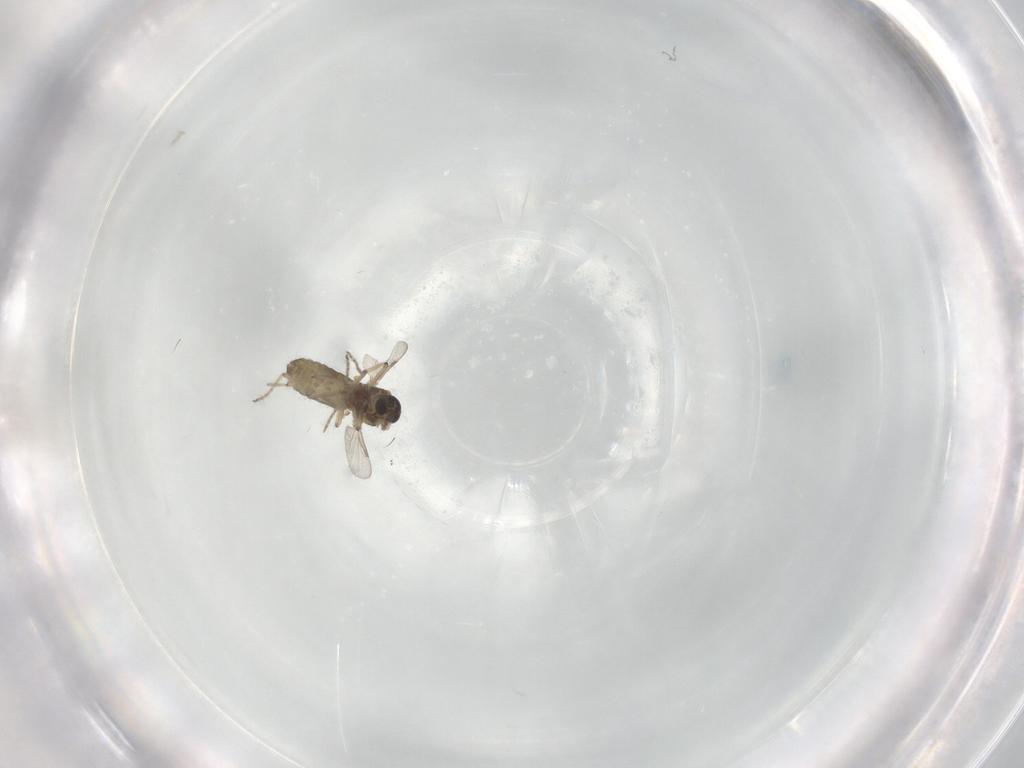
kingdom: Animalia
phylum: Arthropoda
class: Insecta
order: Diptera
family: Ceratopogonidae
